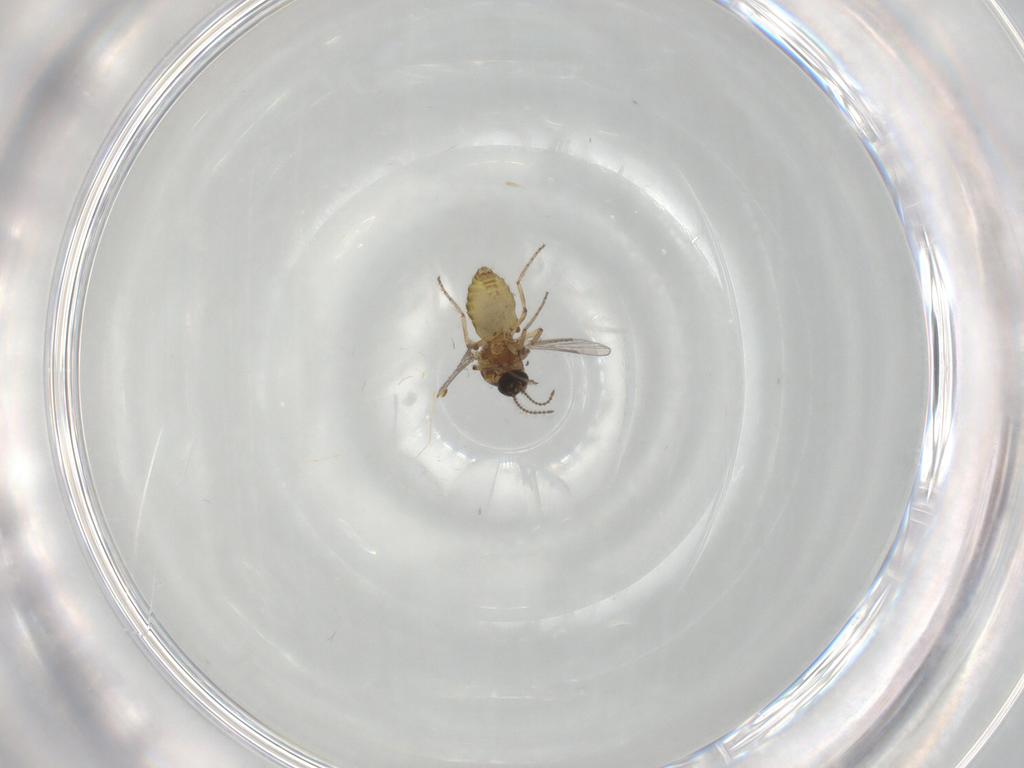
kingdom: Animalia
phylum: Arthropoda
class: Insecta
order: Diptera
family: Ceratopogonidae
